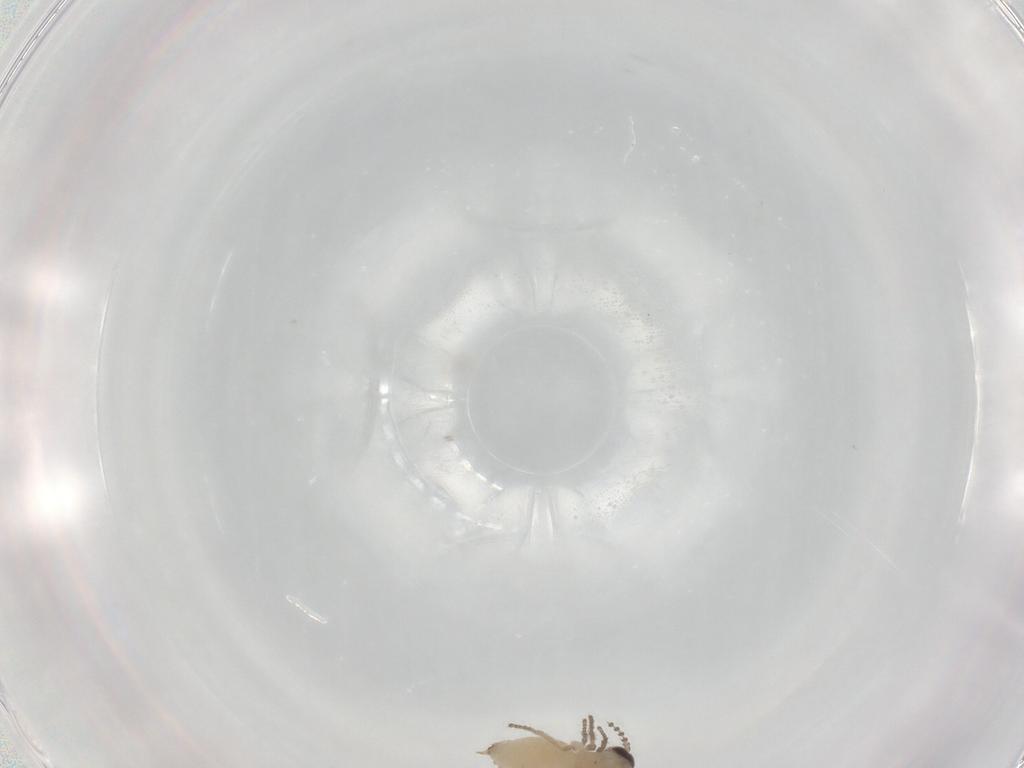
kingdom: Animalia
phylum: Arthropoda
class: Insecta
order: Diptera
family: Psychodidae
